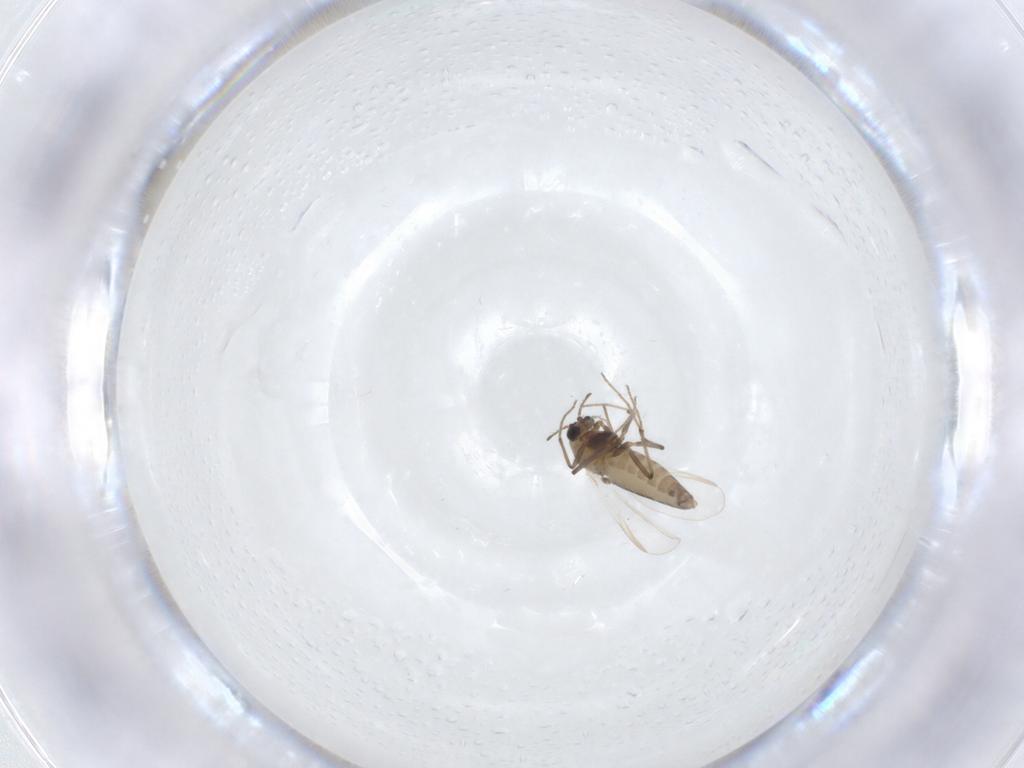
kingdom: Animalia
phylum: Arthropoda
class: Insecta
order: Diptera
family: Chironomidae
